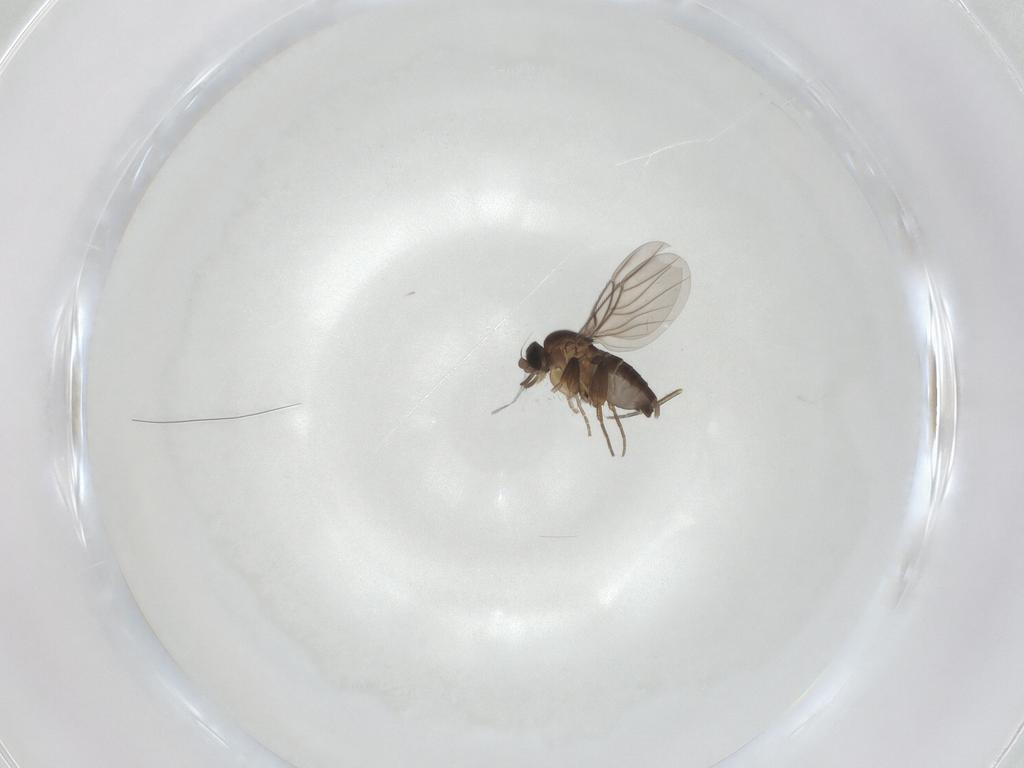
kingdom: Animalia
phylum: Arthropoda
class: Insecta
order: Diptera
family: Phoridae
